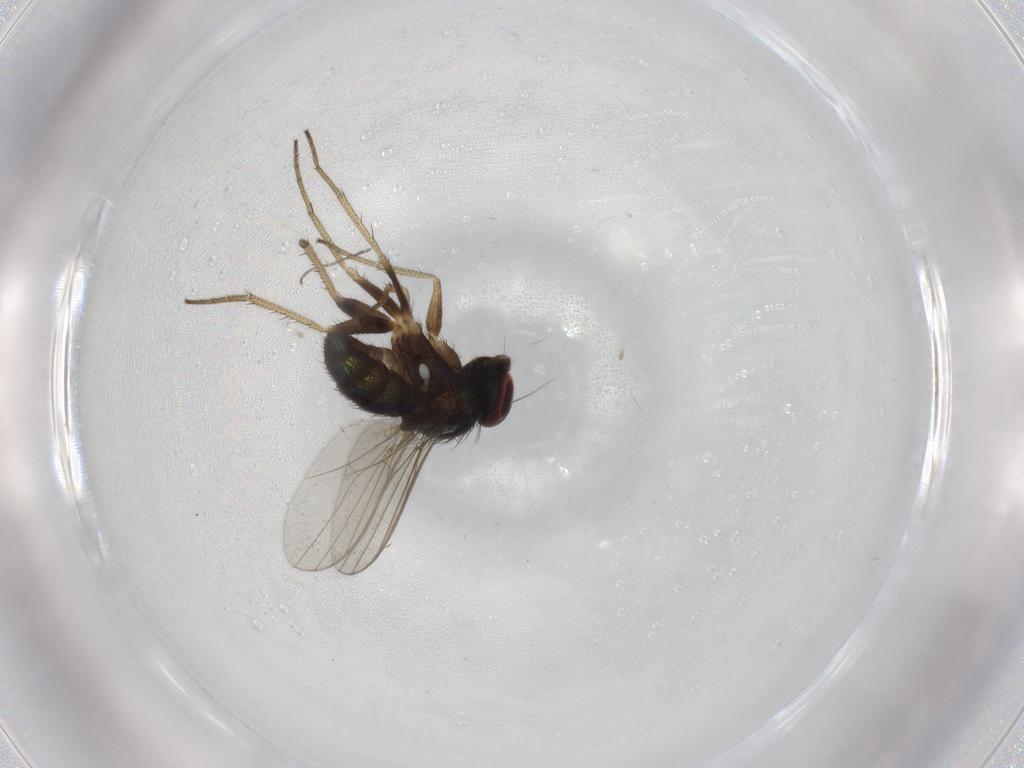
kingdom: Animalia
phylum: Arthropoda
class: Insecta
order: Diptera
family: Dolichopodidae
